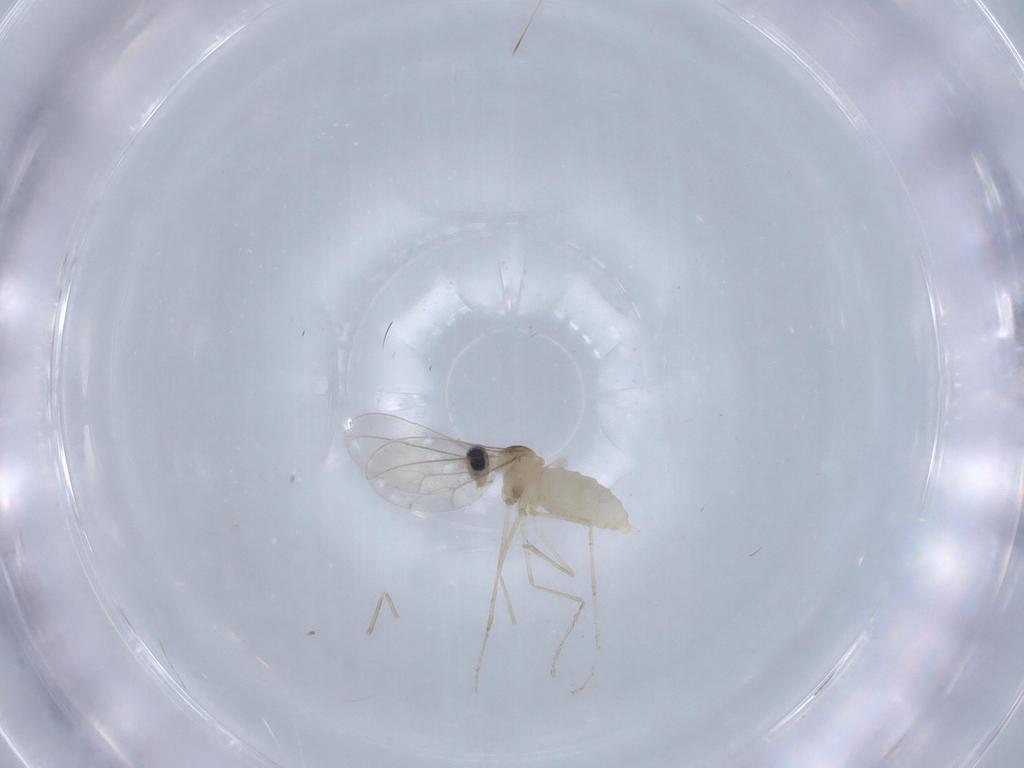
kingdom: Animalia
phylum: Arthropoda
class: Insecta
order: Diptera
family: Cecidomyiidae
